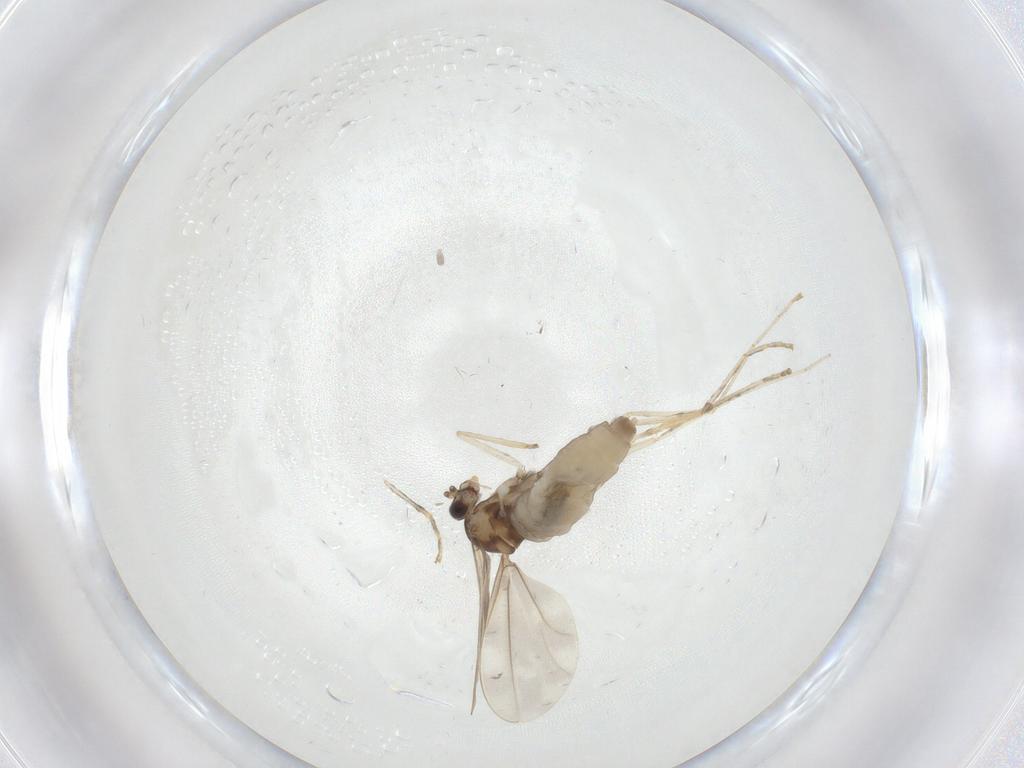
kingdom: Animalia
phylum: Arthropoda
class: Insecta
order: Diptera
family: Cecidomyiidae
